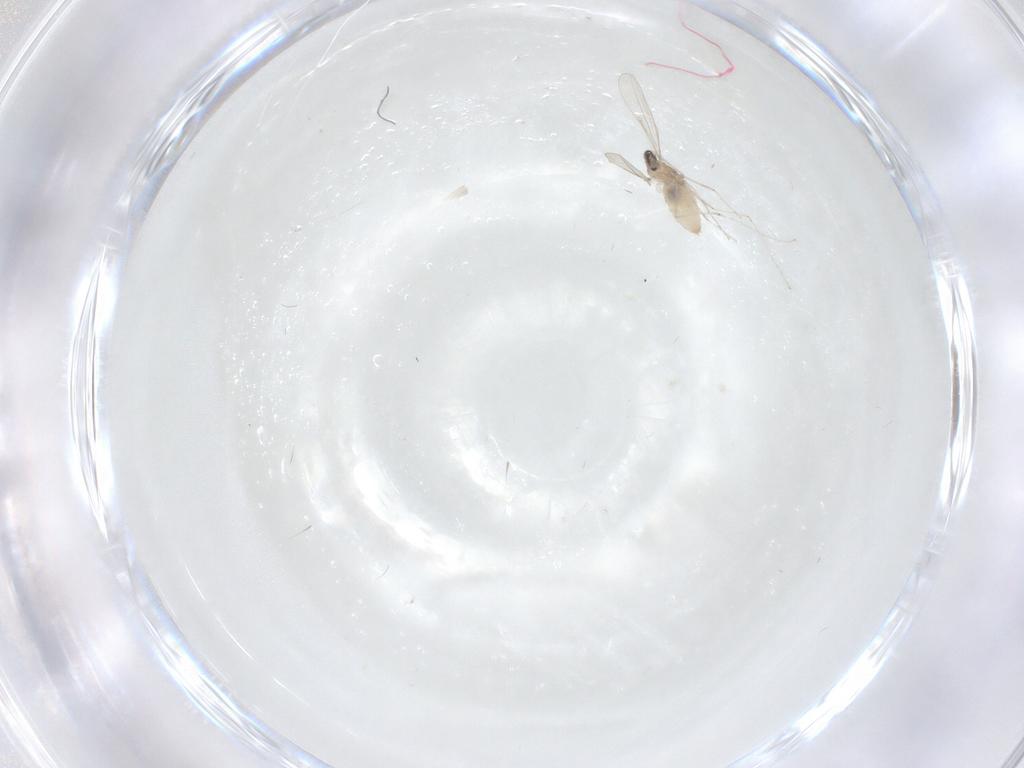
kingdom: Animalia
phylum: Arthropoda
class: Insecta
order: Diptera
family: Cecidomyiidae
